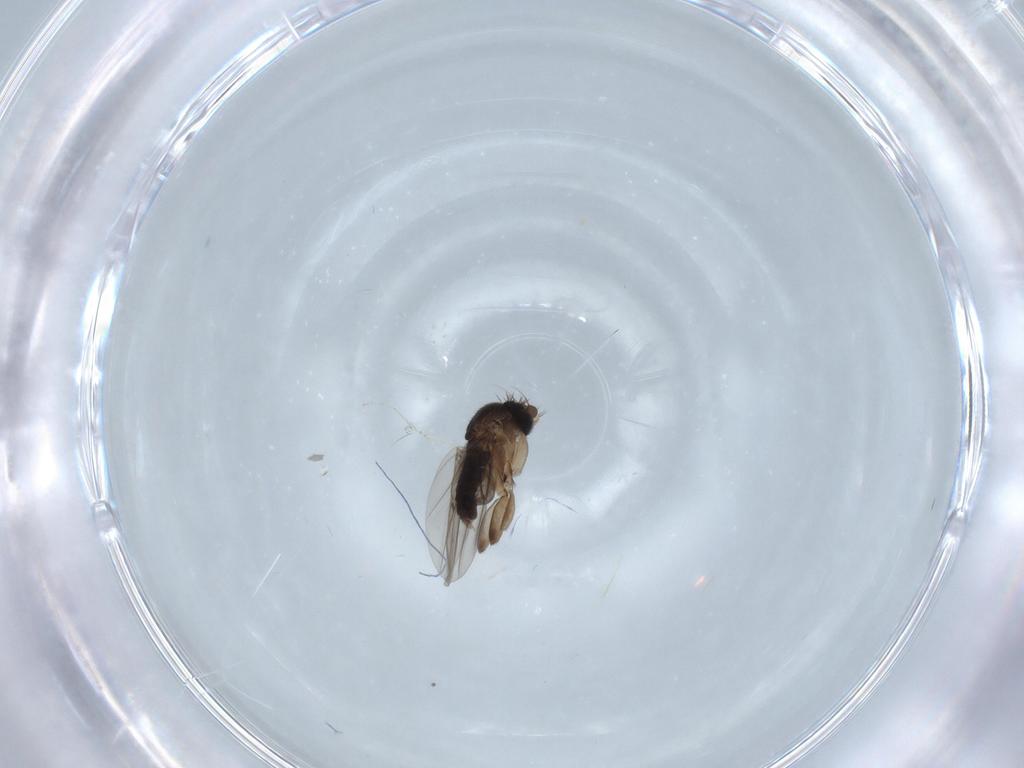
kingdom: Animalia
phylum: Arthropoda
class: Insecta
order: Diptera
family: Phoridae
